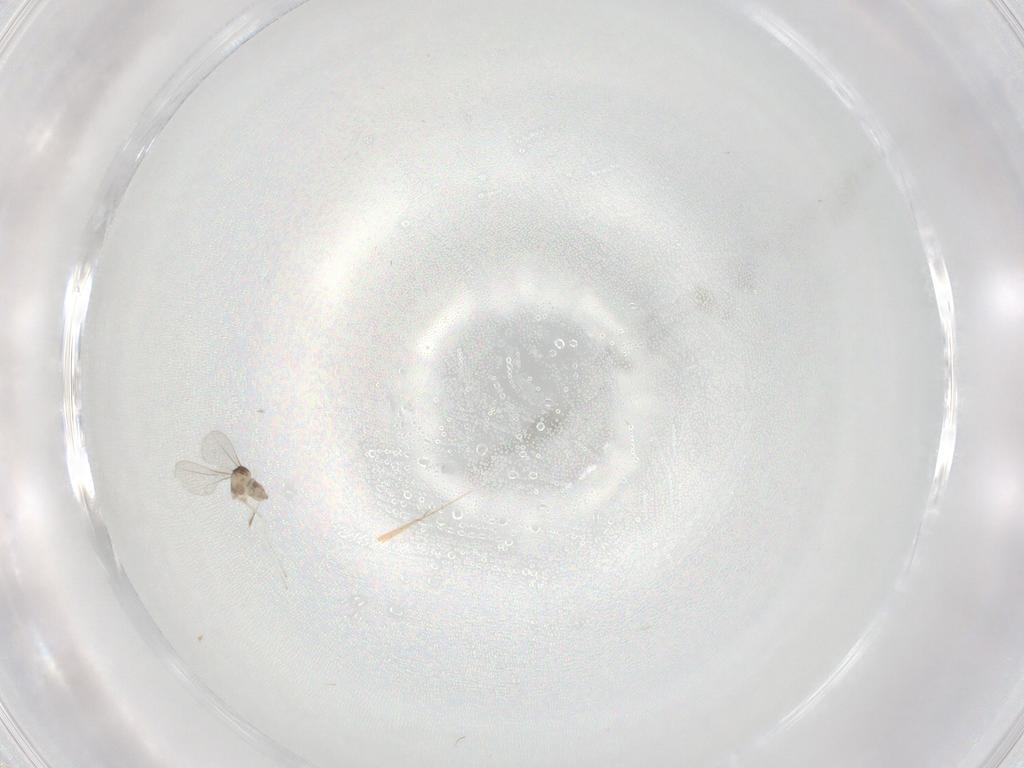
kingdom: Animalia
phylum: Arthropoda
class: Insecta
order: Diptera
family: Cecidomyiidae
